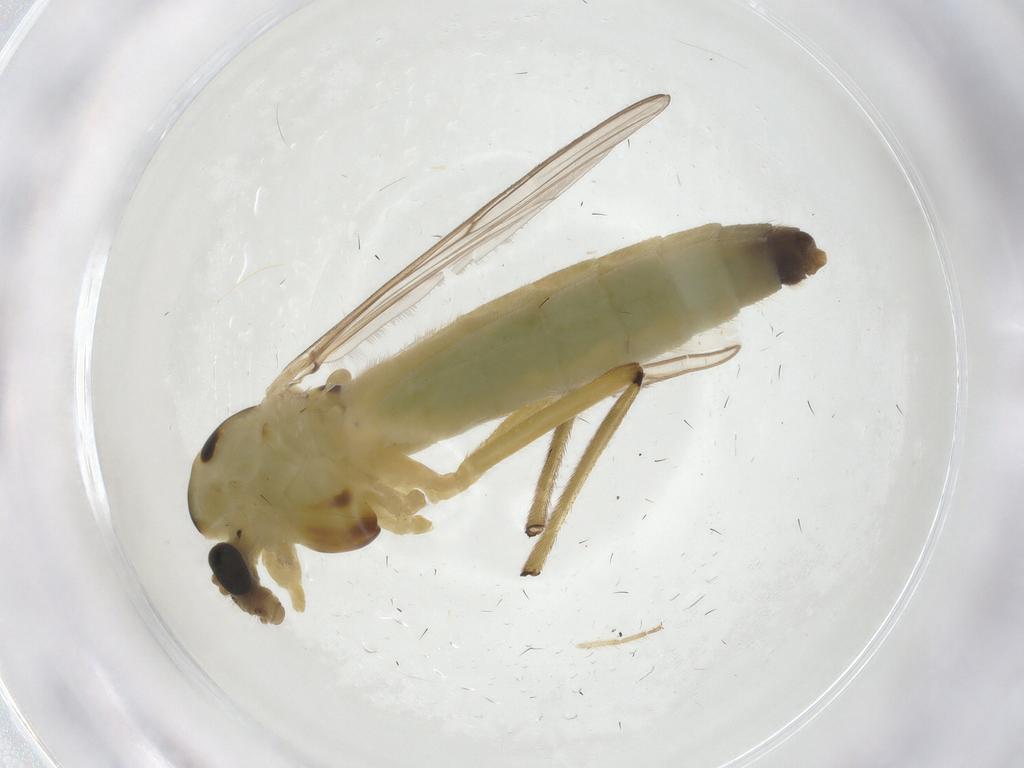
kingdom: Animalia
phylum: Arthropoda
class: Insecta
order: Diptera
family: Chironomidae
